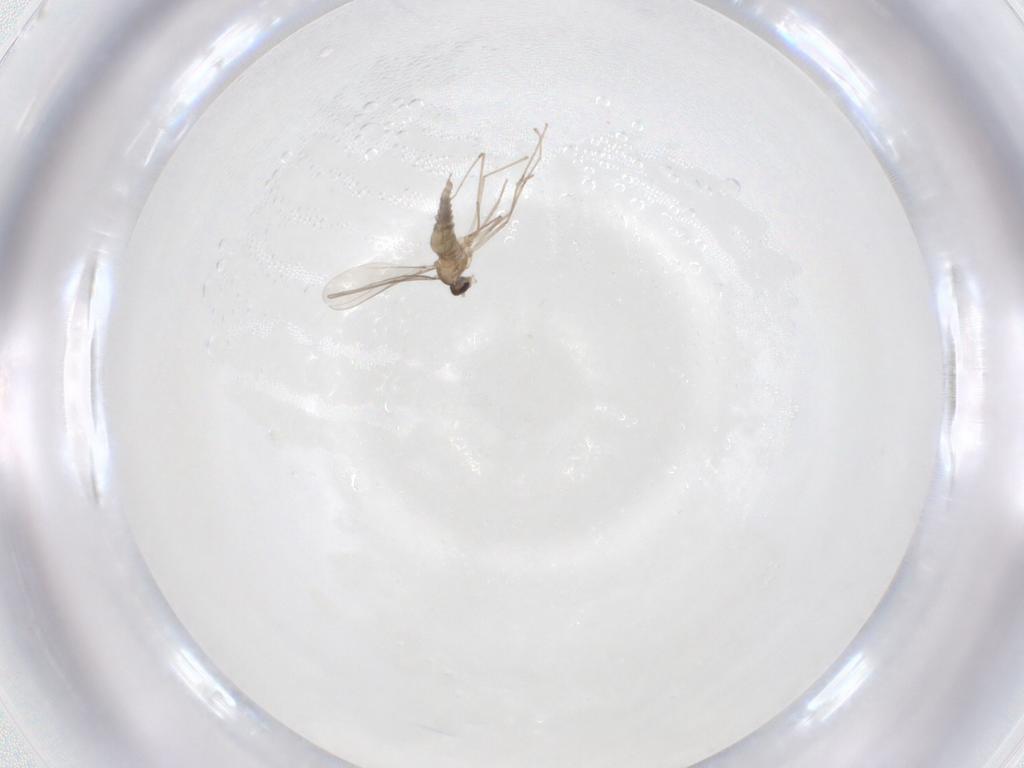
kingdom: Animalia
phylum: Arthropoda
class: Insecta
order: Diptera
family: Cecidomyiidae
